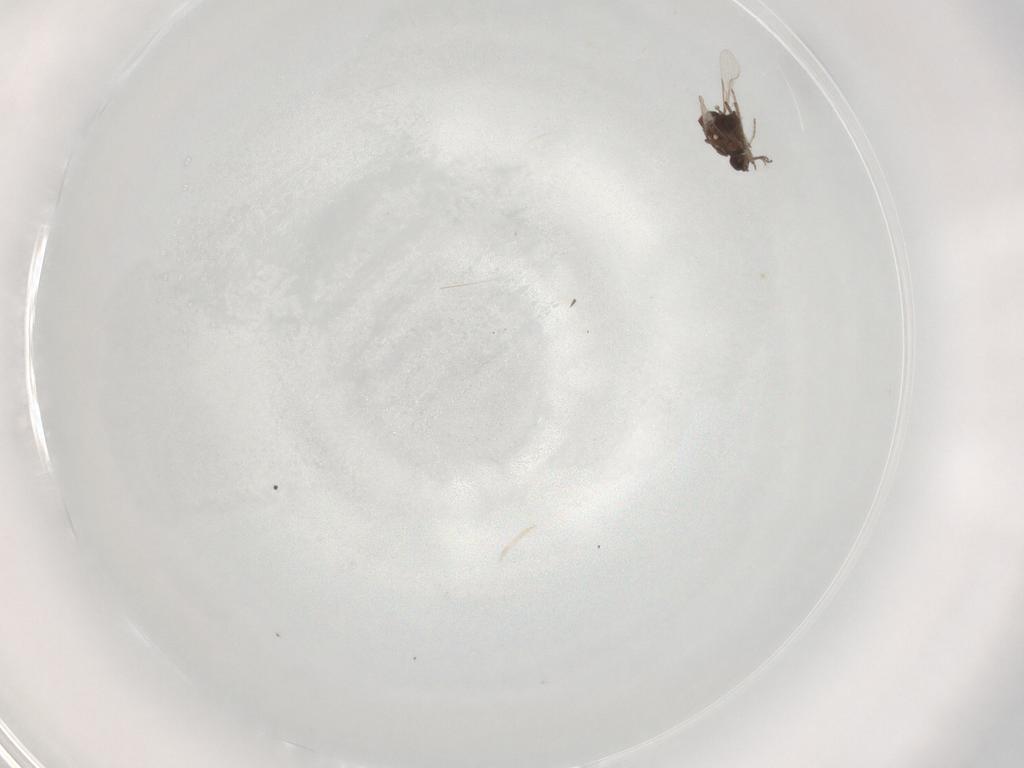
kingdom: Animalia
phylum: Arthropoda
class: Insecta
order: Diptera
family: Ceratopogonidae
